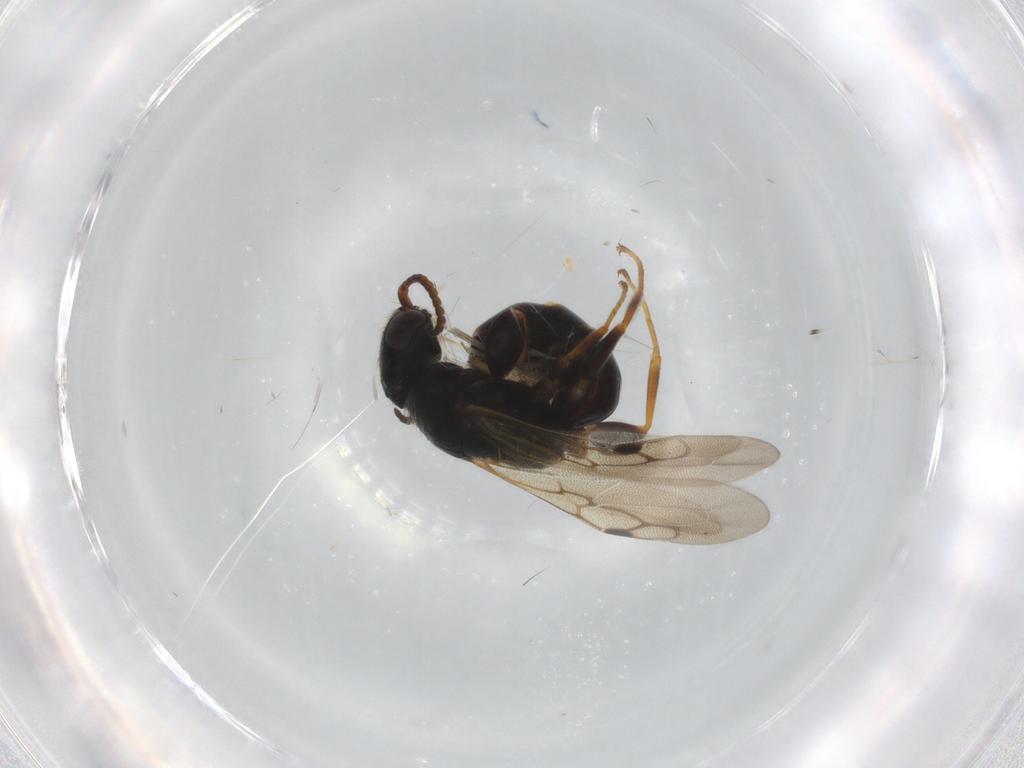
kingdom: Animalia
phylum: Arthropoda
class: Insecta
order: Hymenoptera
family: Bethylidae
